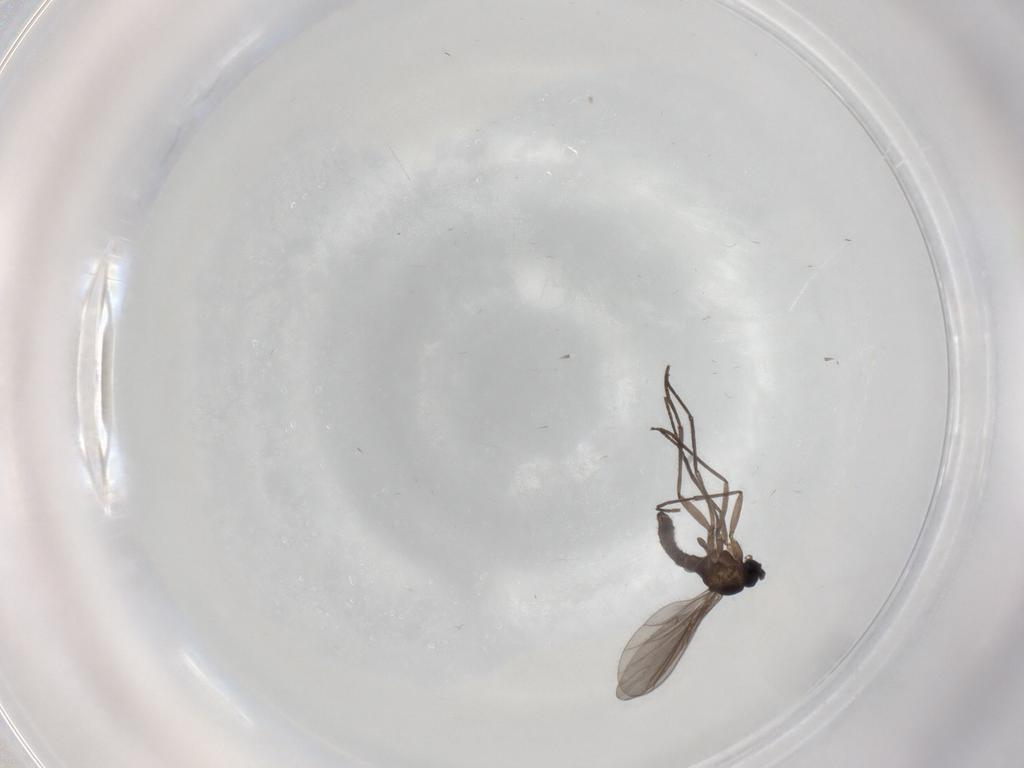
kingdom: Animalia
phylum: Arthropoda
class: Insecta
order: Diptera
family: Sciaridae
